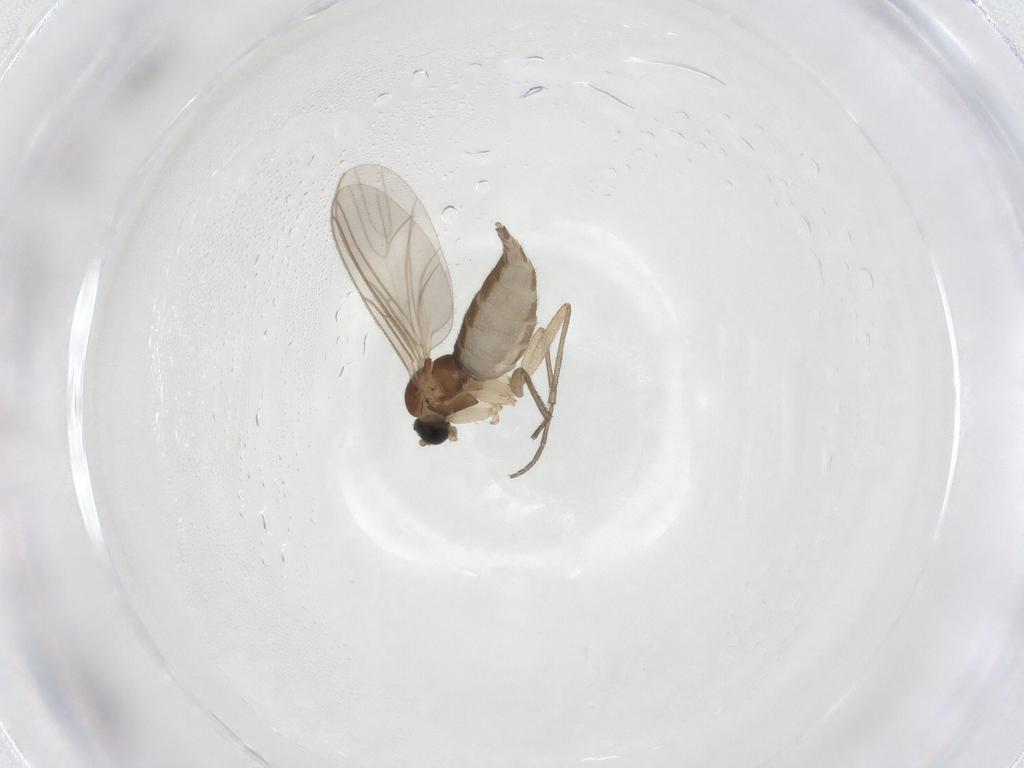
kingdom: Animalia
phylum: Arthropoda
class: Insecta
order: Diptera
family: Sciaridae
